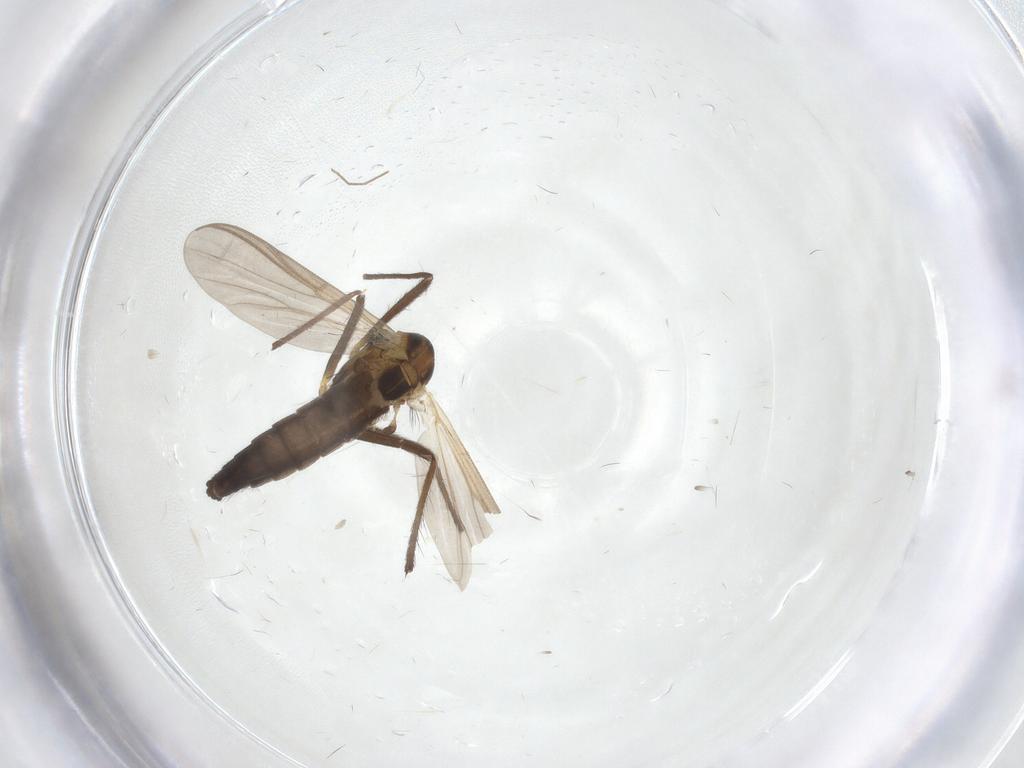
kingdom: Animalia
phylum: Arthropoda
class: Insecta
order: Diptera
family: Chironomidae
